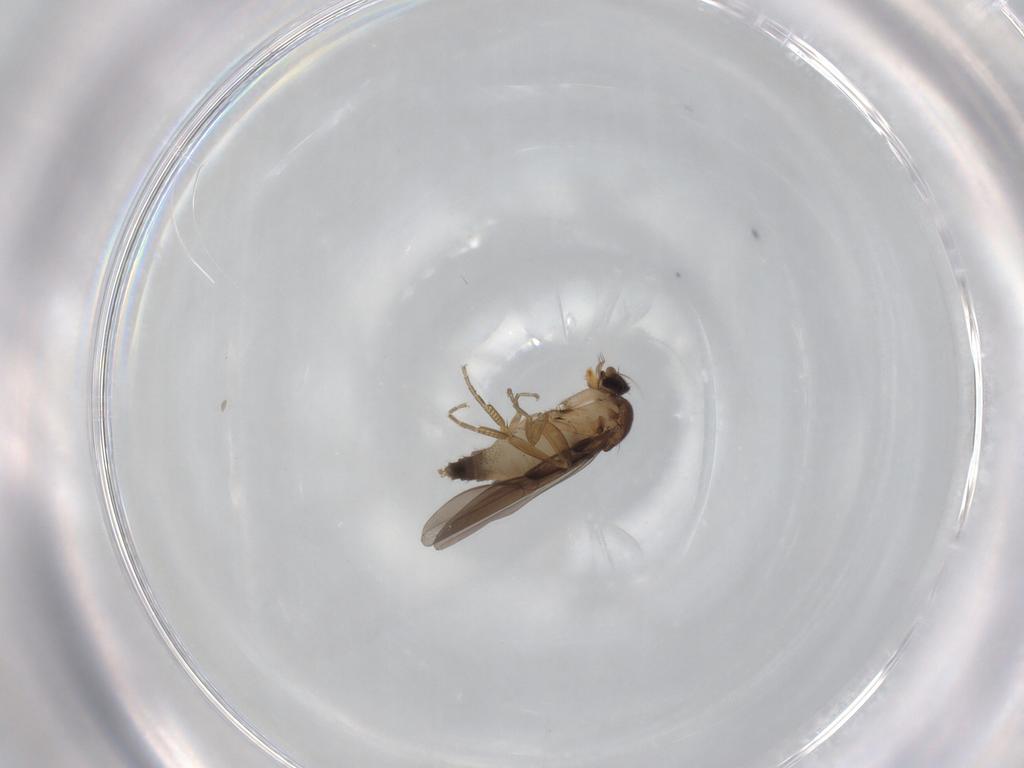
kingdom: Animalia
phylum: Arthropoda
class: Insecta
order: Diptera
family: Phoridae
